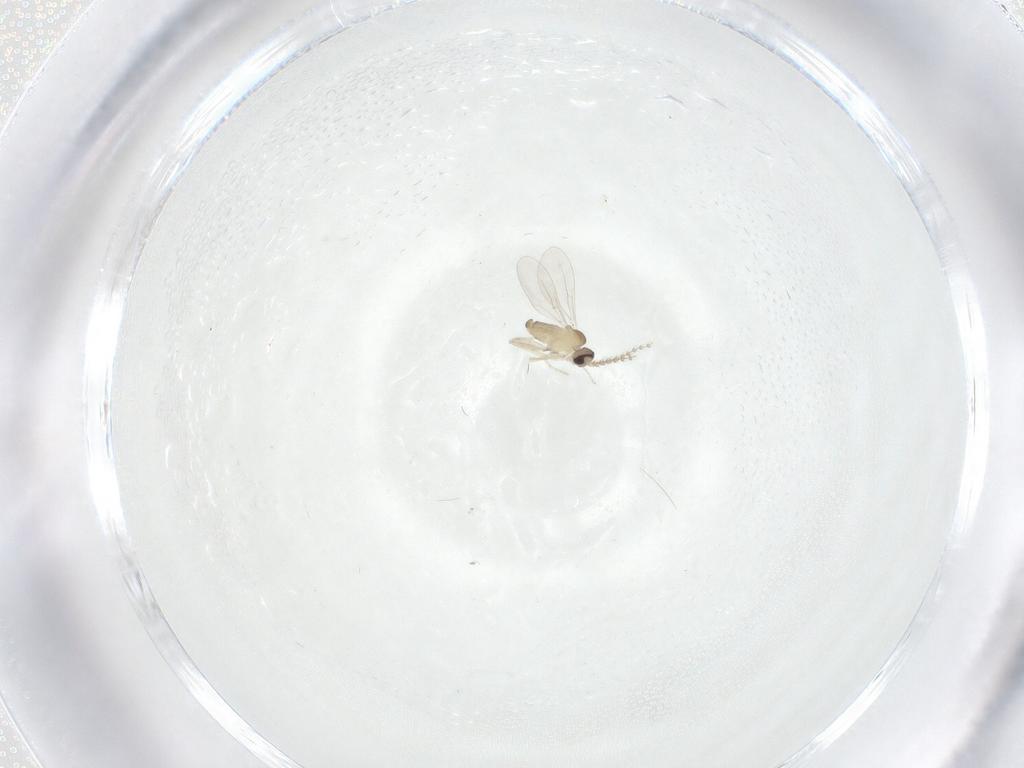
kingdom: Animalia
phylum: Arthropoda
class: Insecta
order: Diptera
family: Cecidomyiidae
